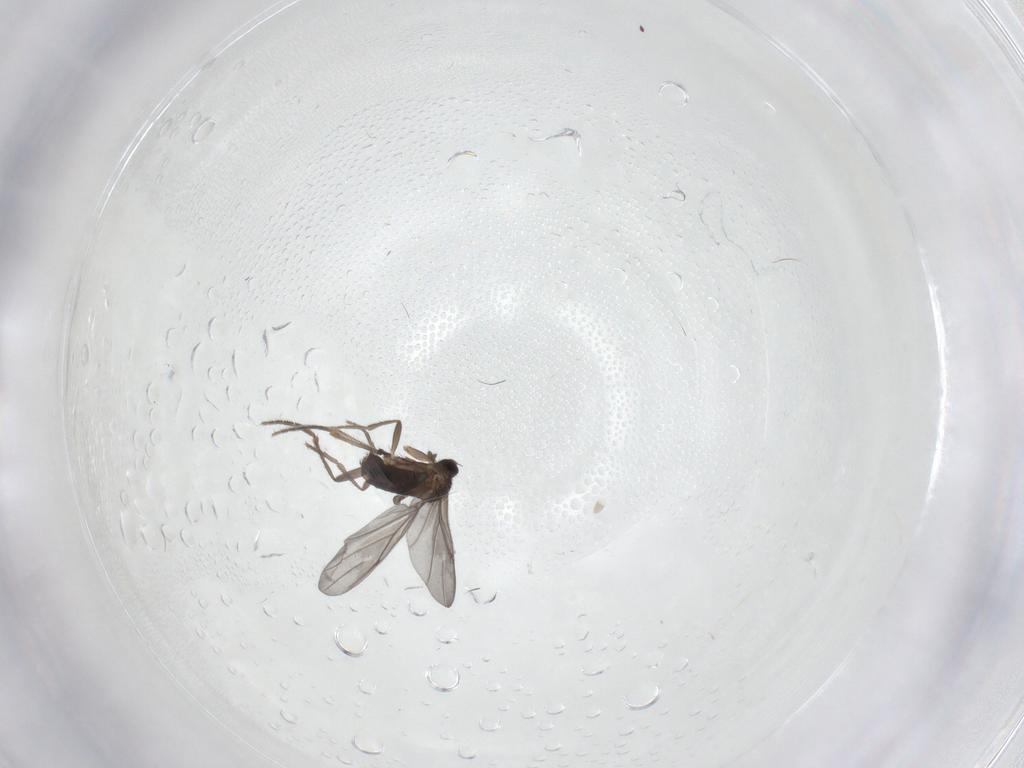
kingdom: Animalia
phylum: Arthropoda
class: Insecta
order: Diptera
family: Phoridae
